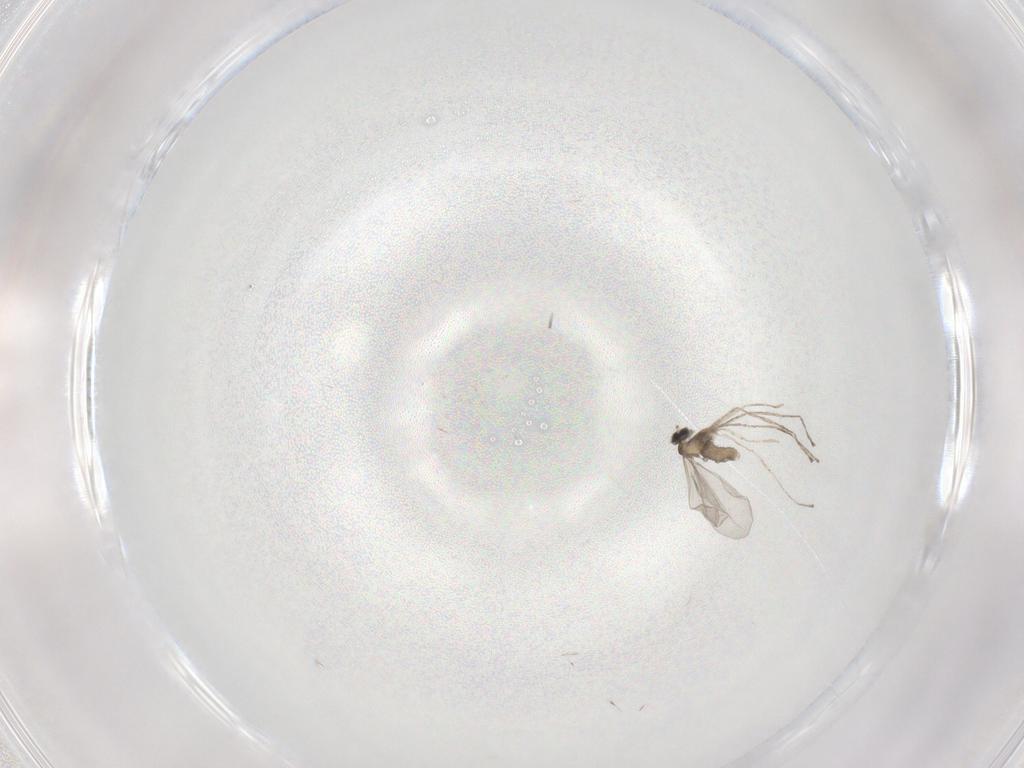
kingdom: Animalia
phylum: Arthropoda
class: Insecta
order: Diptera
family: Cecidomyiidae
